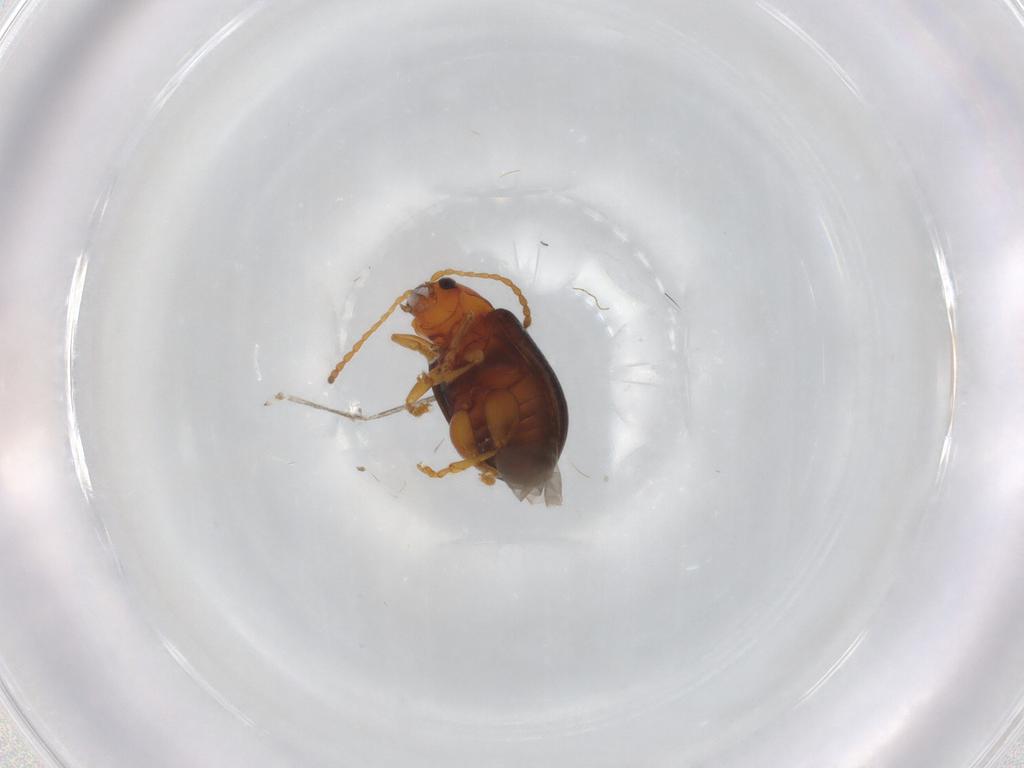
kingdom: Animalia
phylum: Arthropoda
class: Insecta
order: Coleoptera
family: Chrysomelidae
